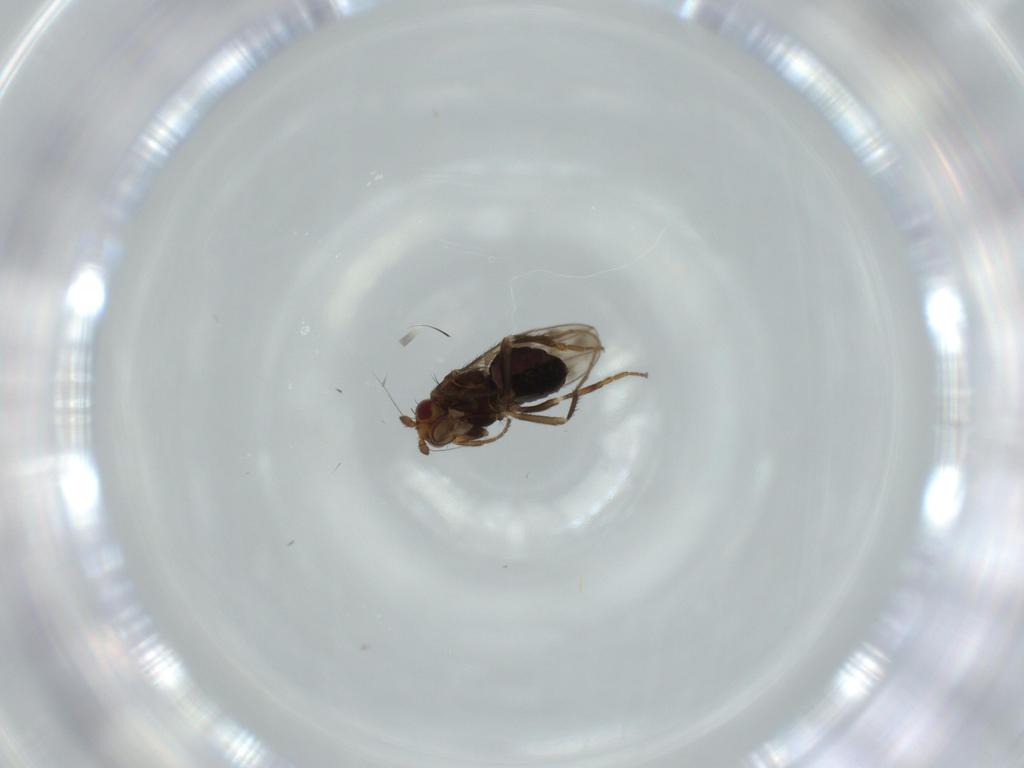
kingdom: Animalia
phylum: Arthropoda
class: Insecta
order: Diptera
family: Sphaeroceridae
